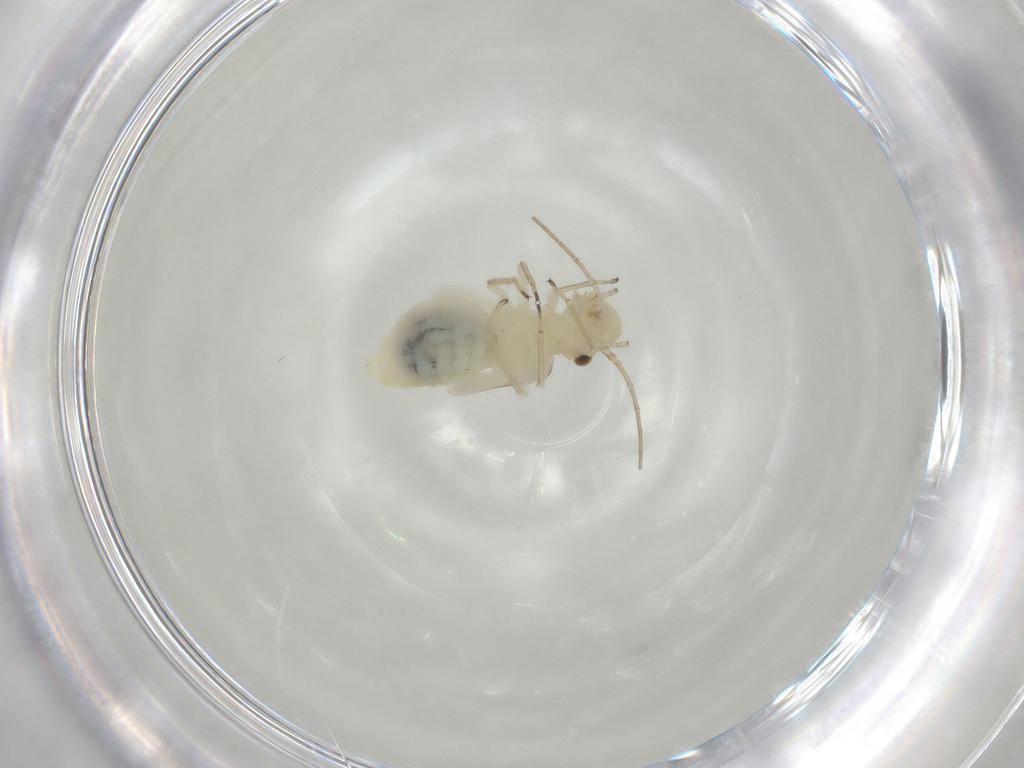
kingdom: Animalia
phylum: Arthropoda
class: Insecta
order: Psocodea
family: Caeciliusidae
